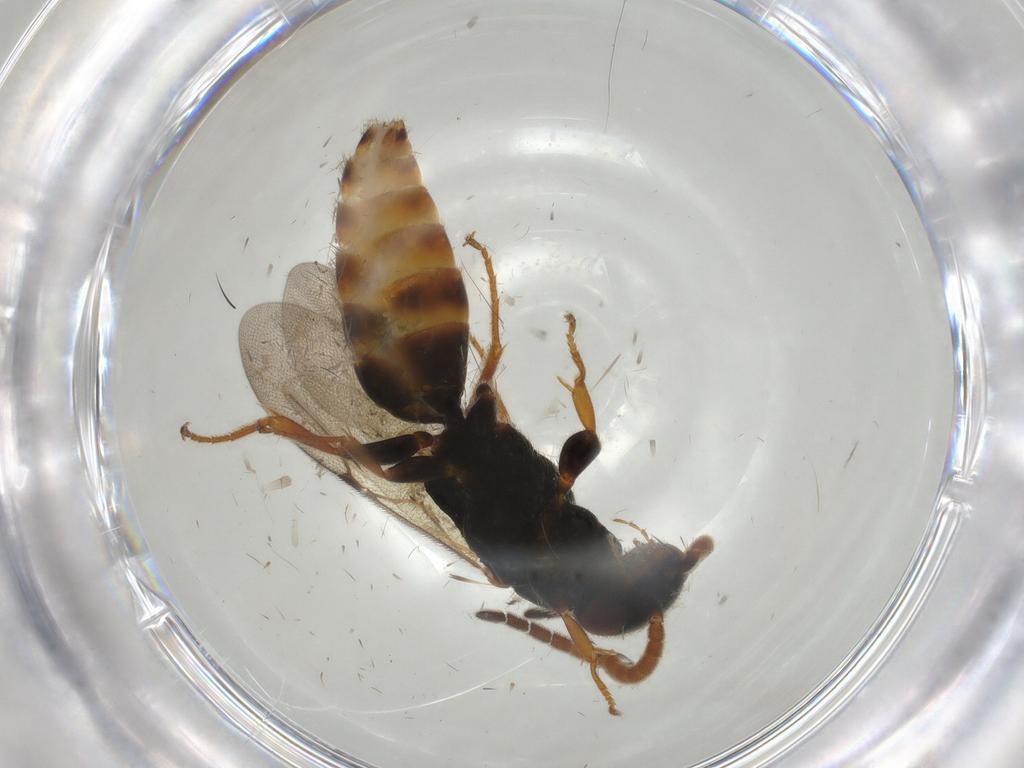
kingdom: Animalia
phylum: Arthropoda
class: Insecta
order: Hymenoptera
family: Bethylidae
